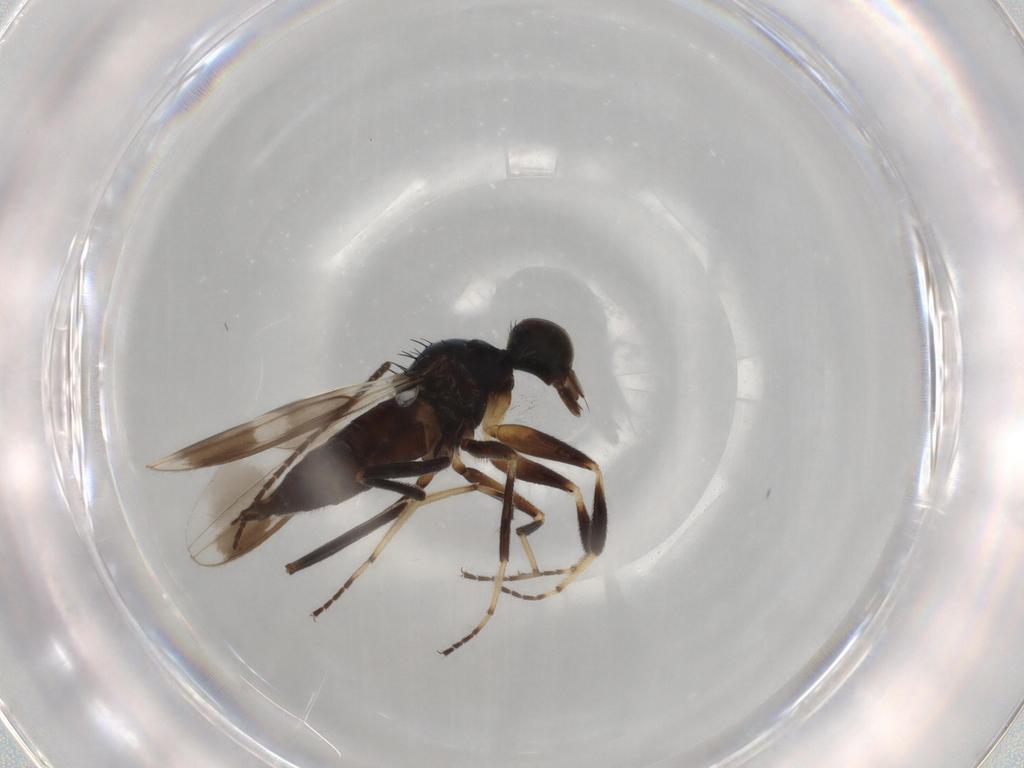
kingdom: Animalia
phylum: Arthropoda
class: Insecta
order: Diptera
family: Hybotidae
